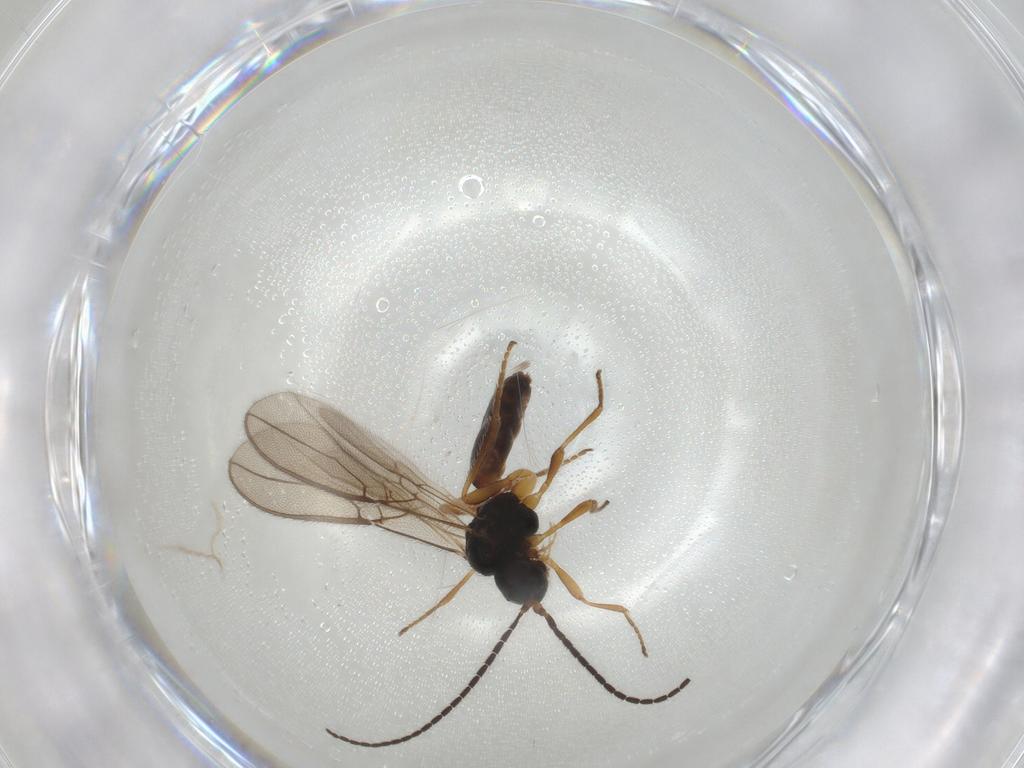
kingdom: Animalia
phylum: Arthropoda
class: Insecta
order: Hymenoptera
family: Braconidae
